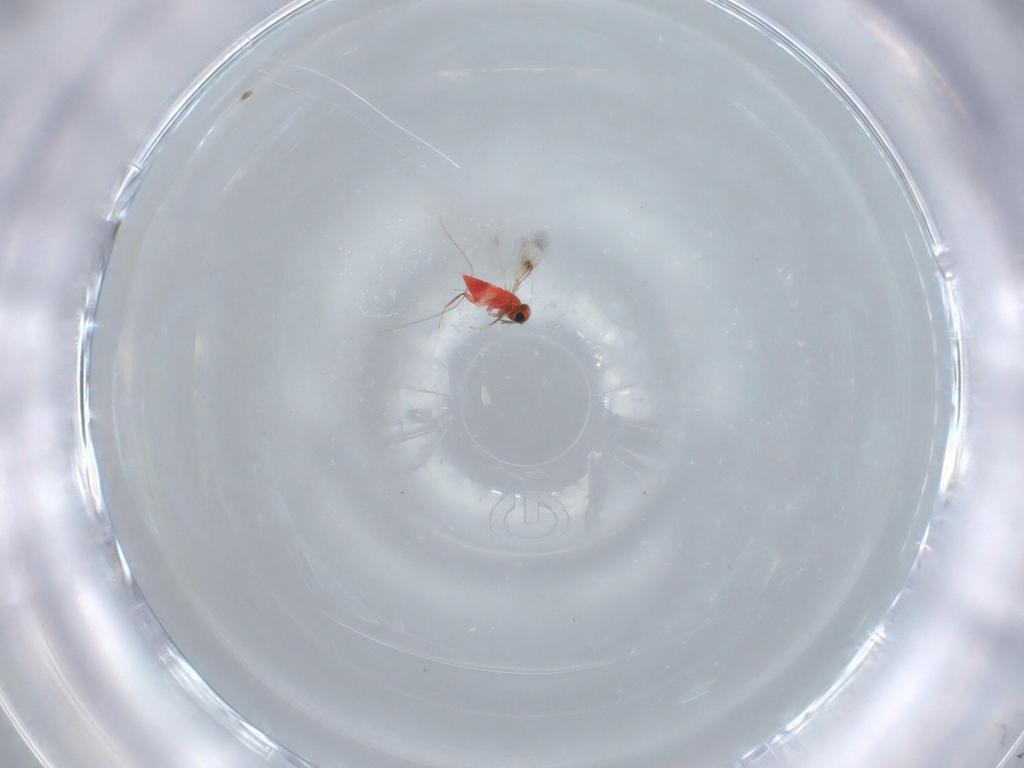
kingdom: Animalia
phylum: Arthropoda
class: Insecta
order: Hymenoptera
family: Trichogrammatidae
